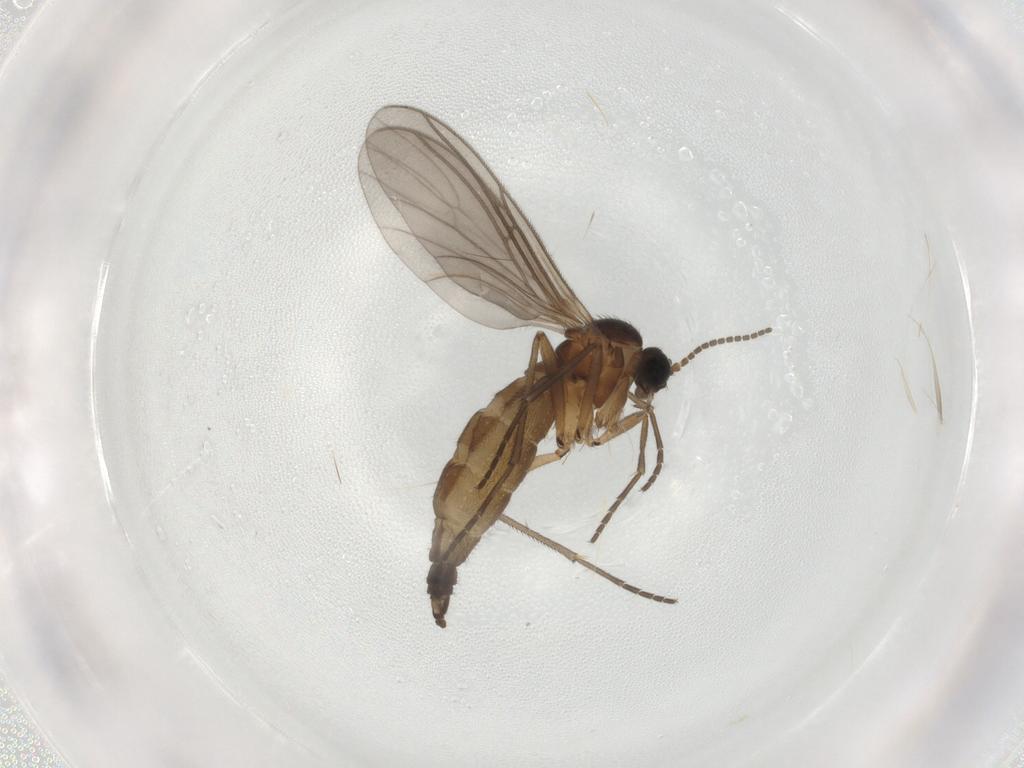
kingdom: Animalia
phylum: Arthropoda
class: Insecta
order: Diptera
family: Sciaridae
